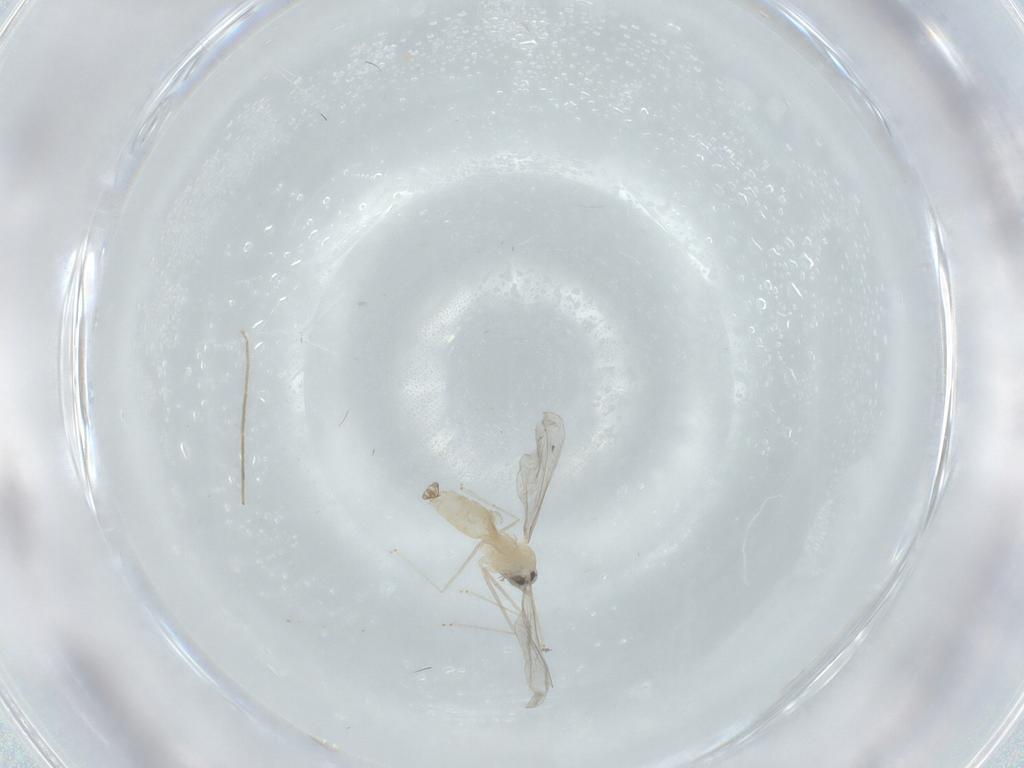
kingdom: Animalia
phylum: Arthropoda
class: Insecta
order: Diptera
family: Cecidomyiidae
